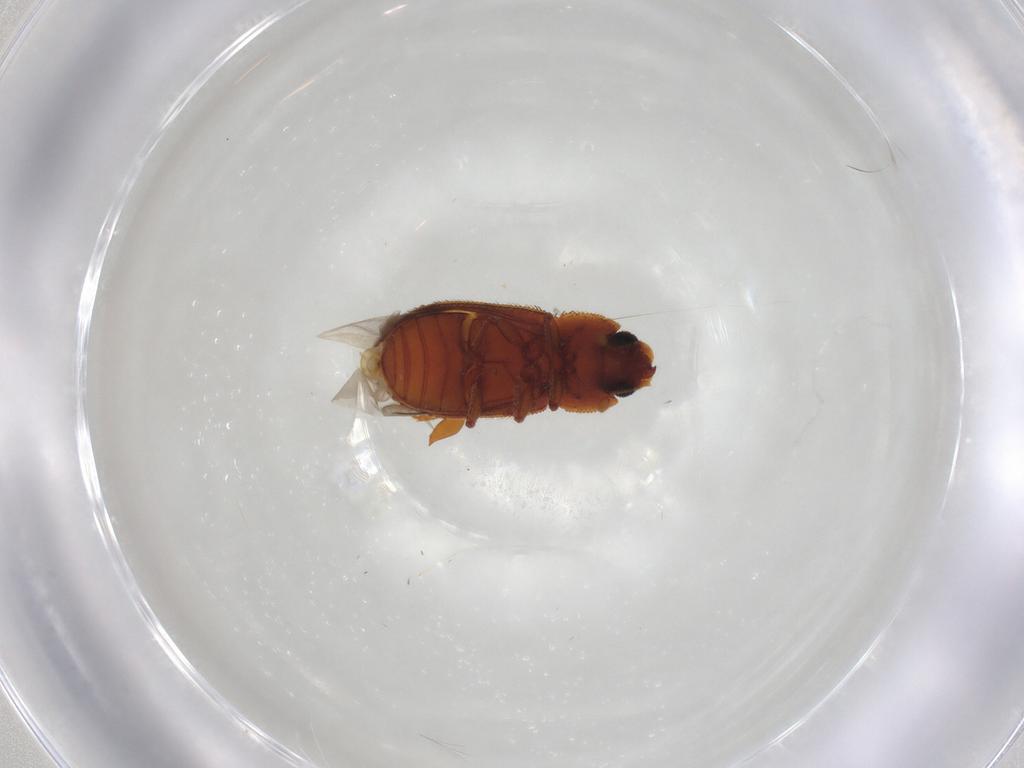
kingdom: Animalia
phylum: Arthropoda
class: Insecta
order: Coleoptera
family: Zopheridae
